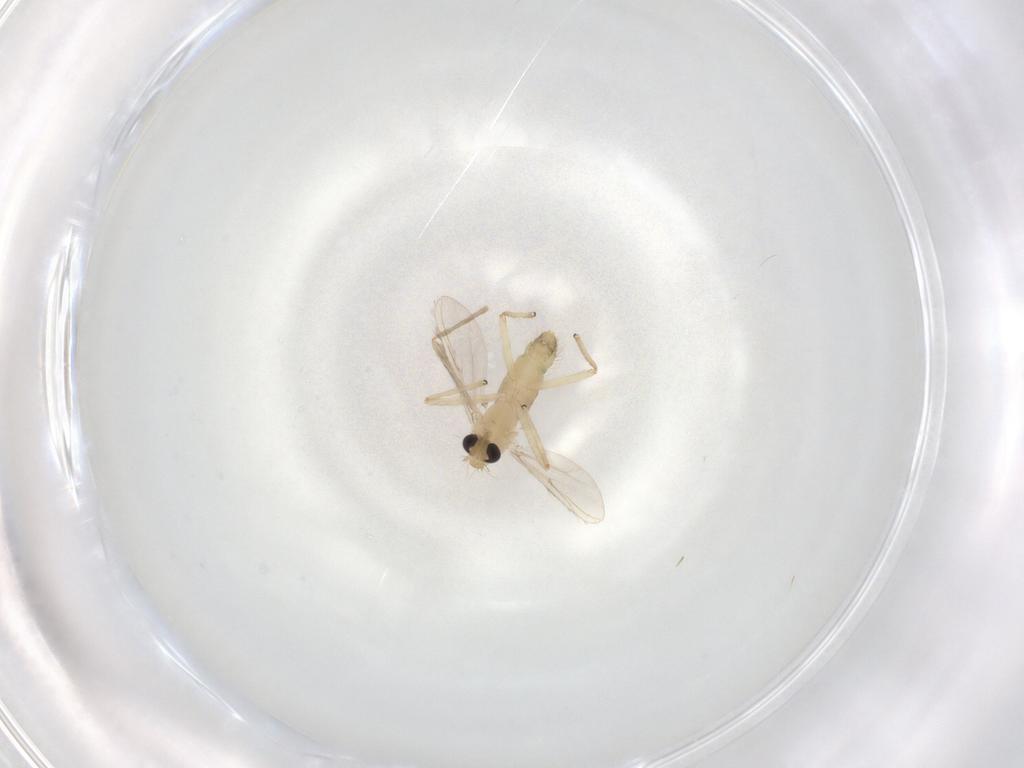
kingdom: Animalia
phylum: Arthropoda
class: Insecta
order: Diptera
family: Chironomidae
